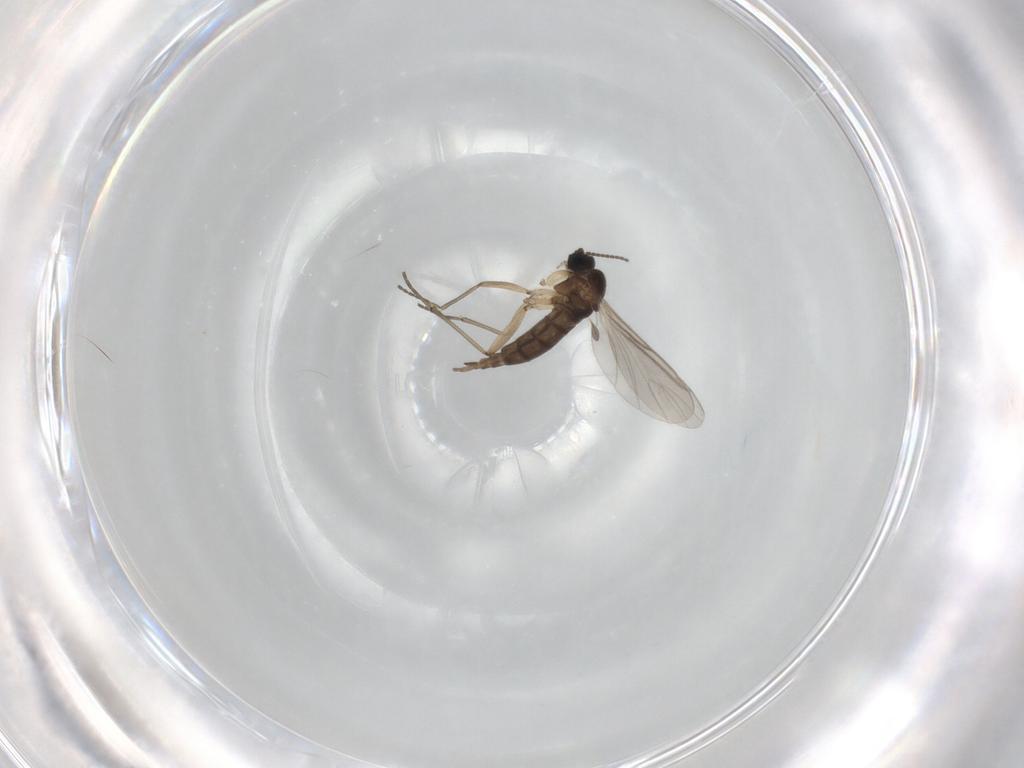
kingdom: Animalia
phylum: Arthropoda
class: Insecta
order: Diptera
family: Sciaridae
